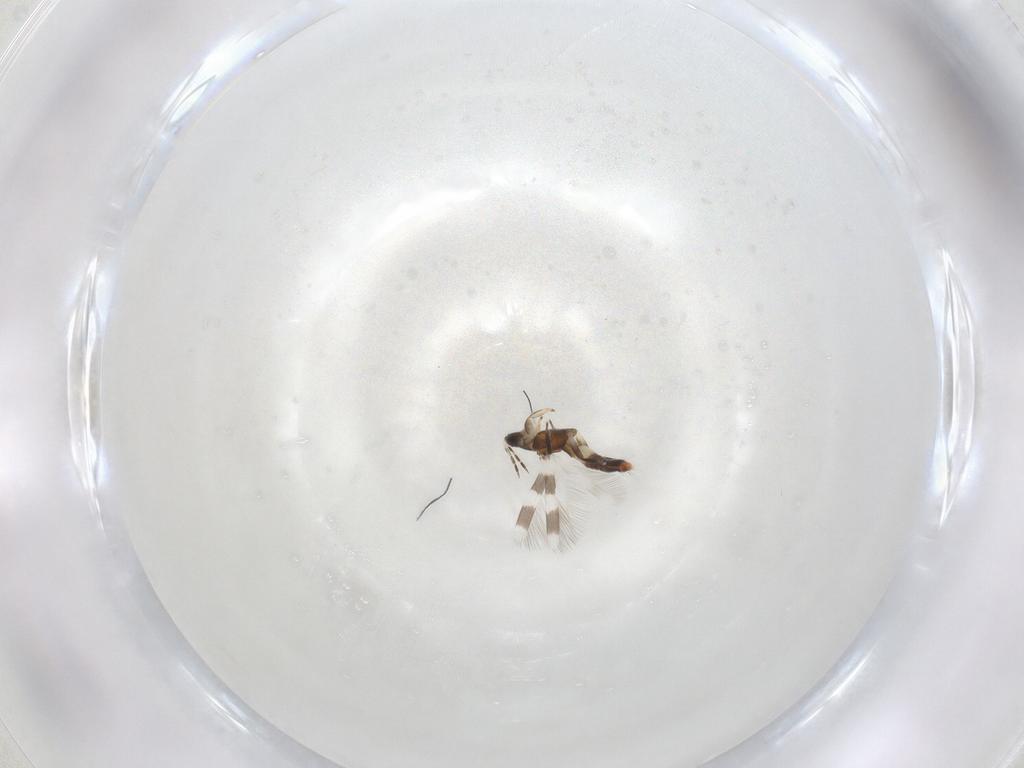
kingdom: Animalia
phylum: Arthropoda
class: Insecta
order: Thysanoptera
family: Aeolothripidae
